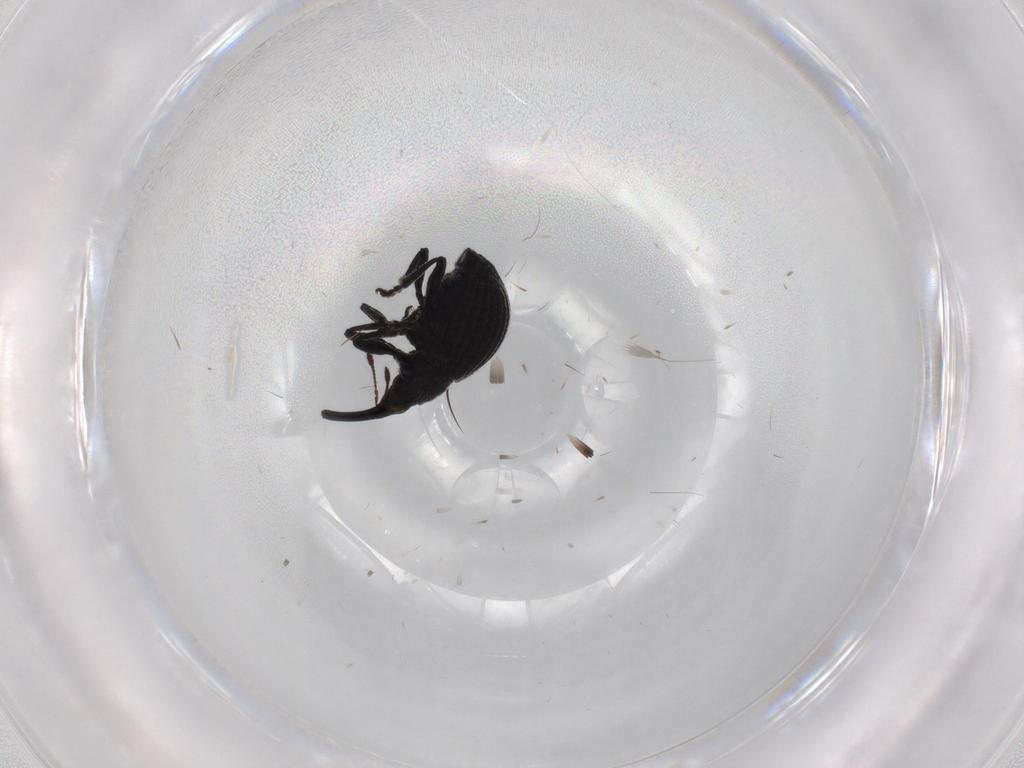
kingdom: Animalia
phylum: Arthropoda
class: Insecta
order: Coleoptera
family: Brentidae
